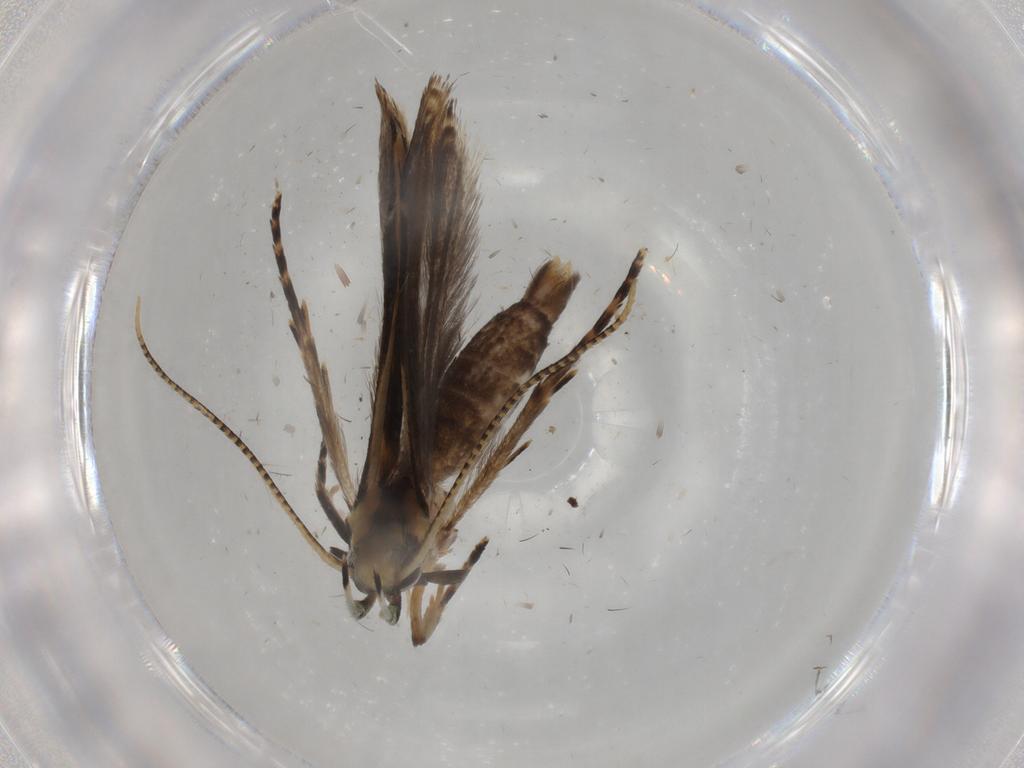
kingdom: Animalia
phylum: Arthropoda
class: Insecta
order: Lepidoptera
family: Gelechiidae
